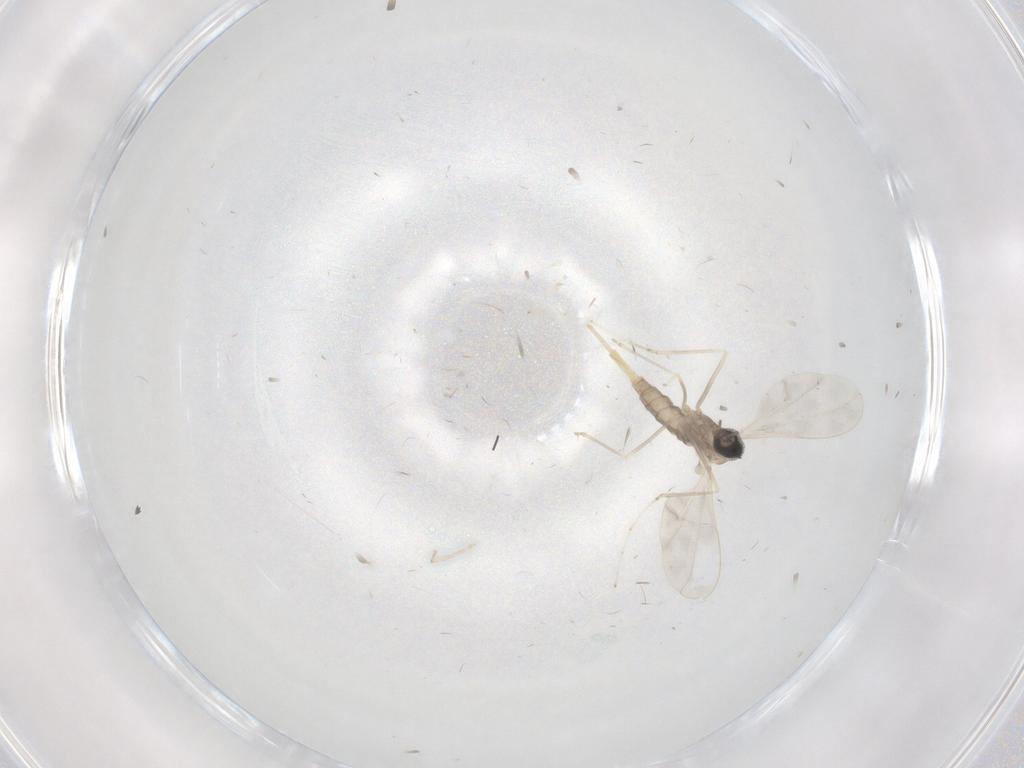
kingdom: Animalia
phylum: Arthropoda
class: Insecta
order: Diptera
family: Cecidomyiidae
